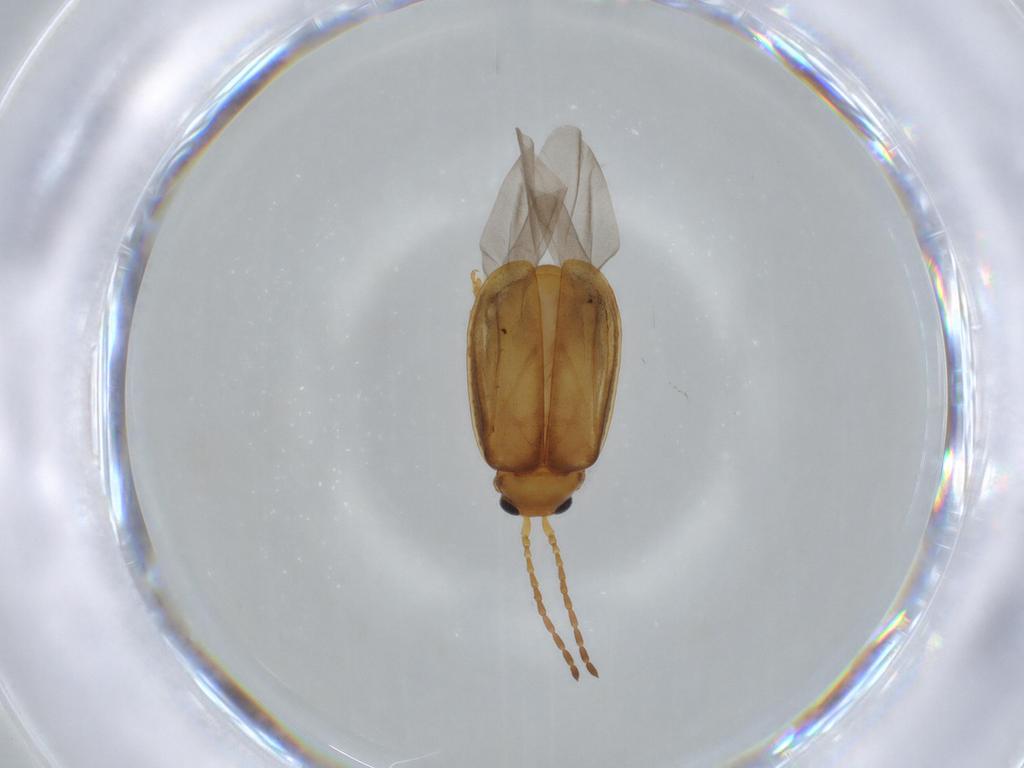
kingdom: Animalia
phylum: Arthropoda
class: Insecta
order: Coleoptera
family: Chrysomelidae
